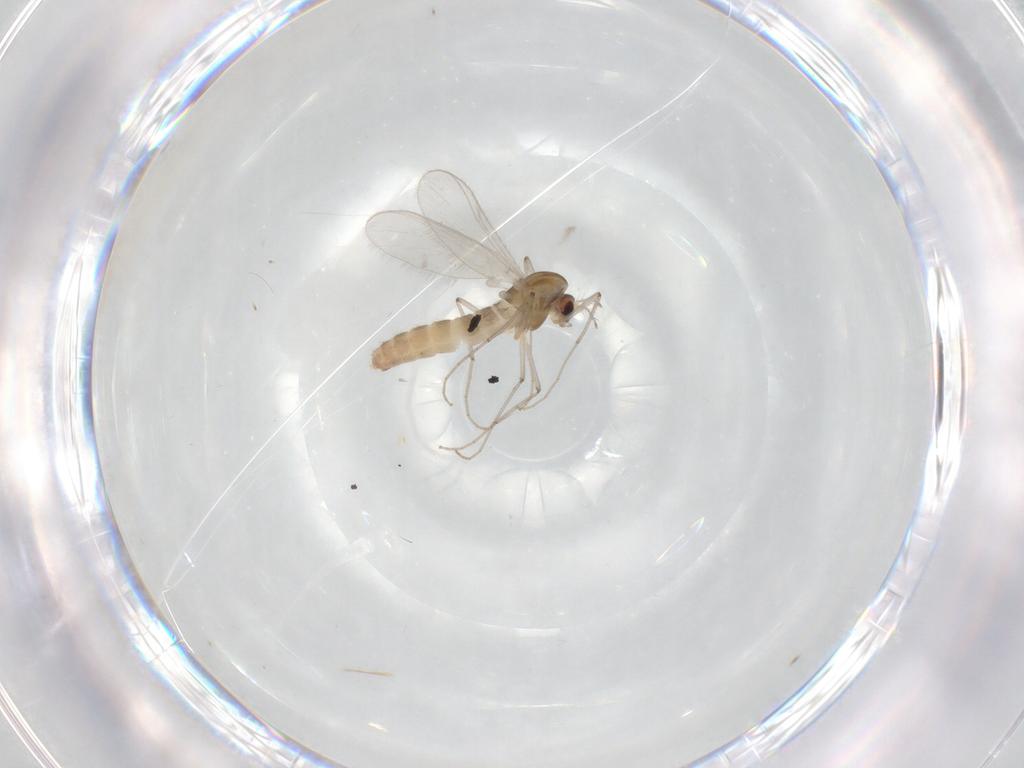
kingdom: Animalia
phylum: Arthropoda
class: Insecta
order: Diptera
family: Chironomidae
